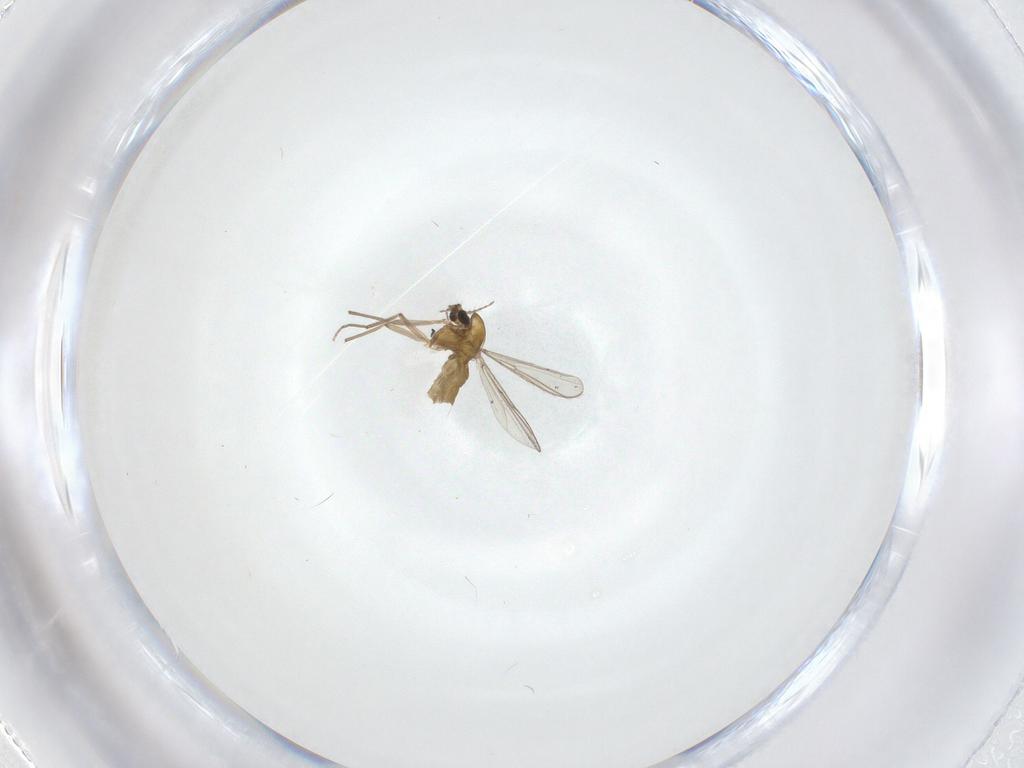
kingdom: Animalia
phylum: Arthropoda
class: Insecta
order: Diptera
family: Chironomidae
